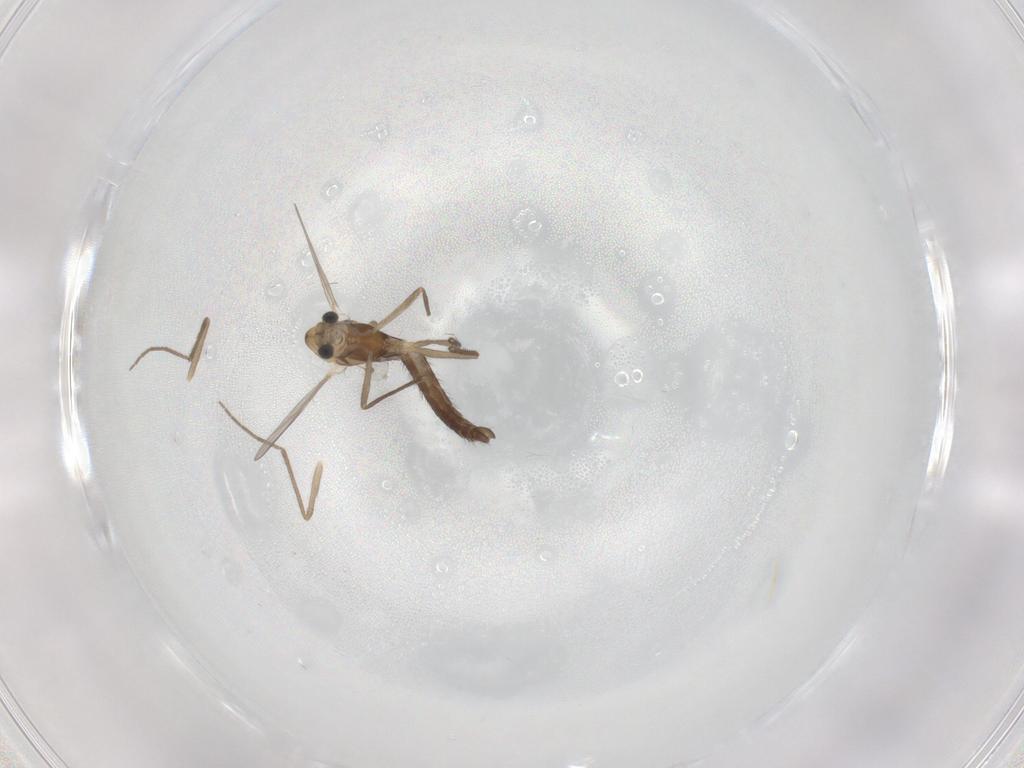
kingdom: Animalia
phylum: Arthropoda
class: Insecta
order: Diptera
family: Chironomidae
